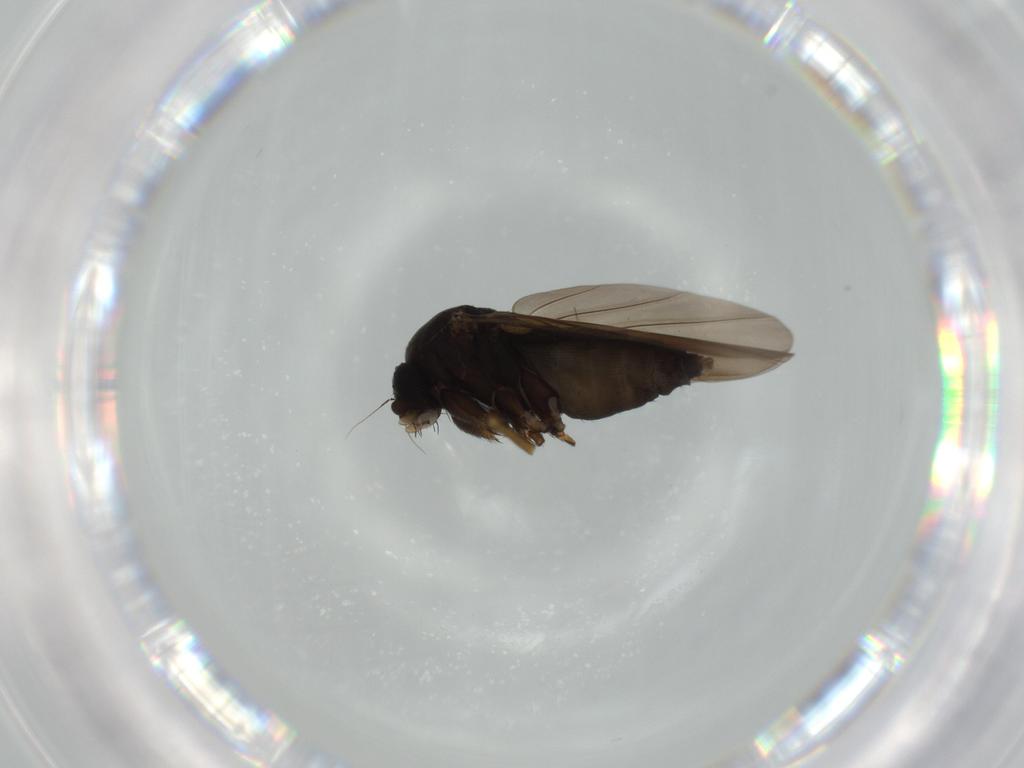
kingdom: Animalia
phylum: Arthropoda
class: Insecta
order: Diptera
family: Phoridae
